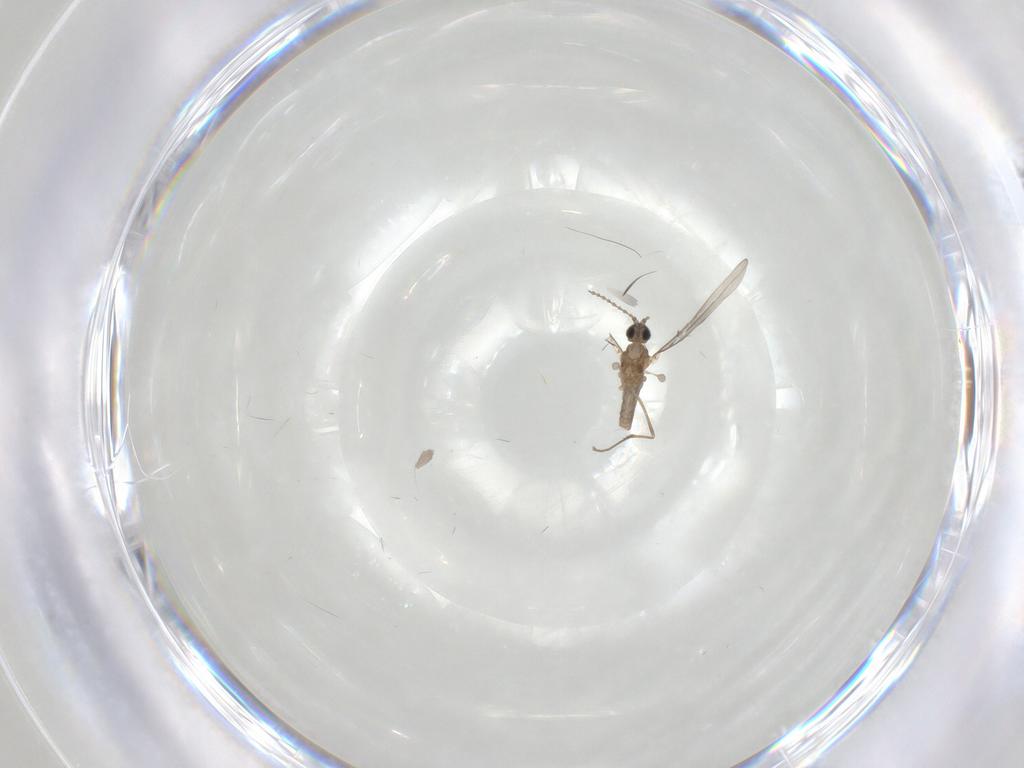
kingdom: Animalia
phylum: Arthropoda
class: Insecta
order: Diptera
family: Cecidomyiidae
